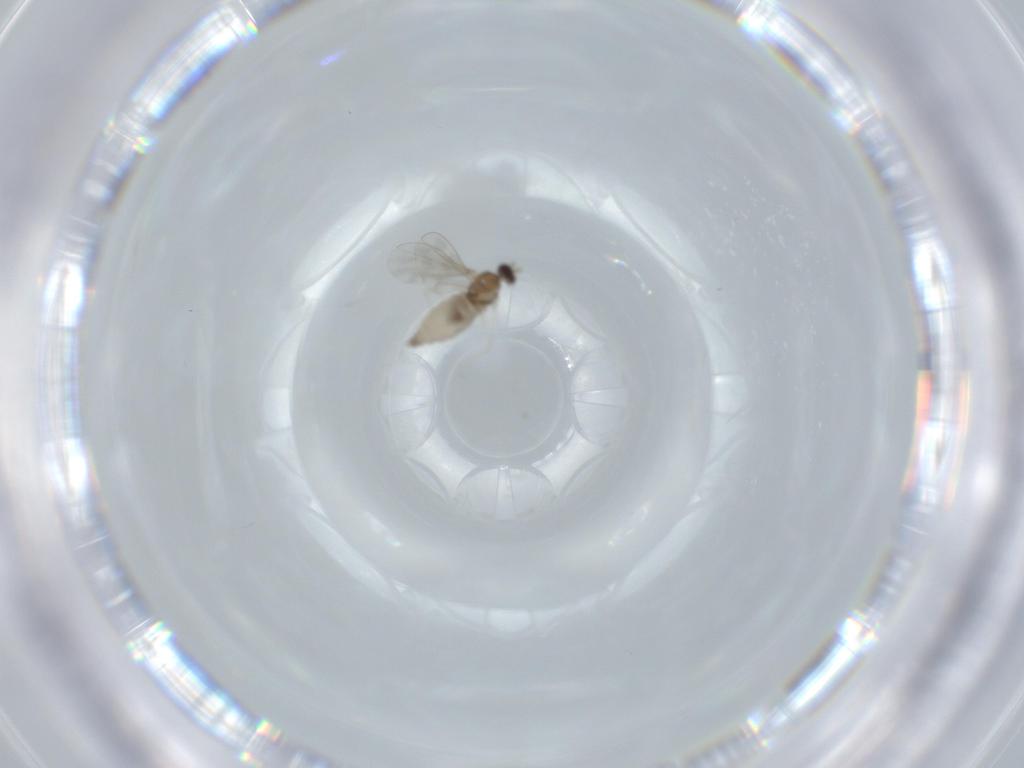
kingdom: Animalia
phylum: Arthropoda
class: Insecta
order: Diptera
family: Cecidomyiidae
